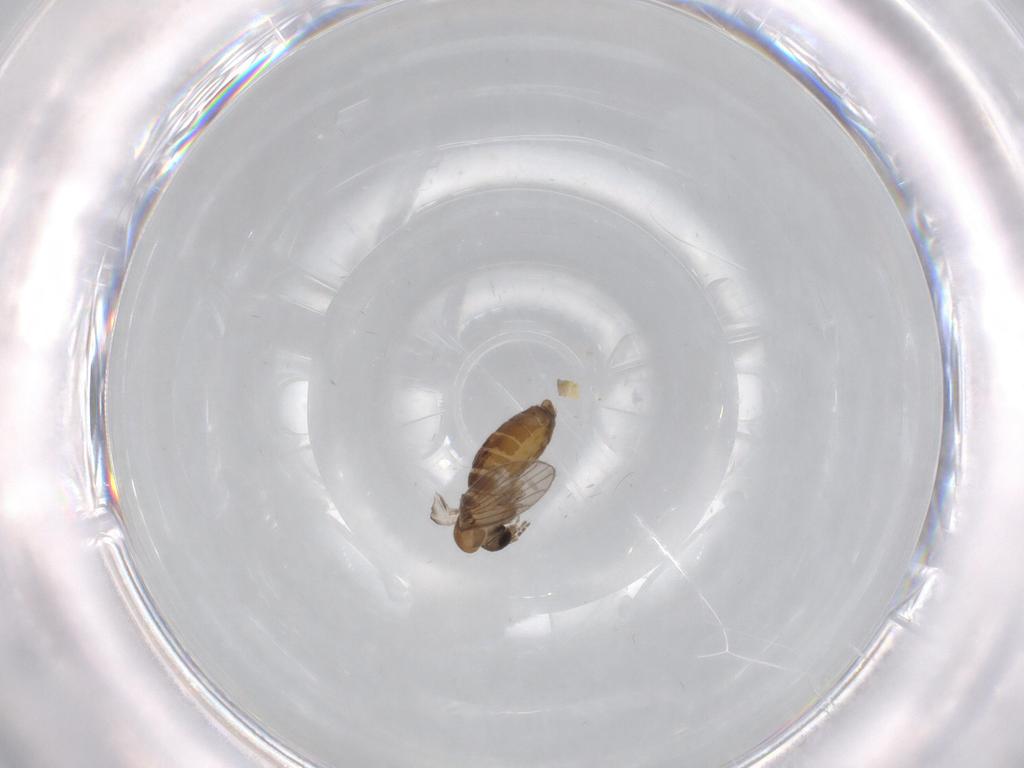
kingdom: Animalia
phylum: Arthropoda
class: Insecta
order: Diptera
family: Psychodidae
